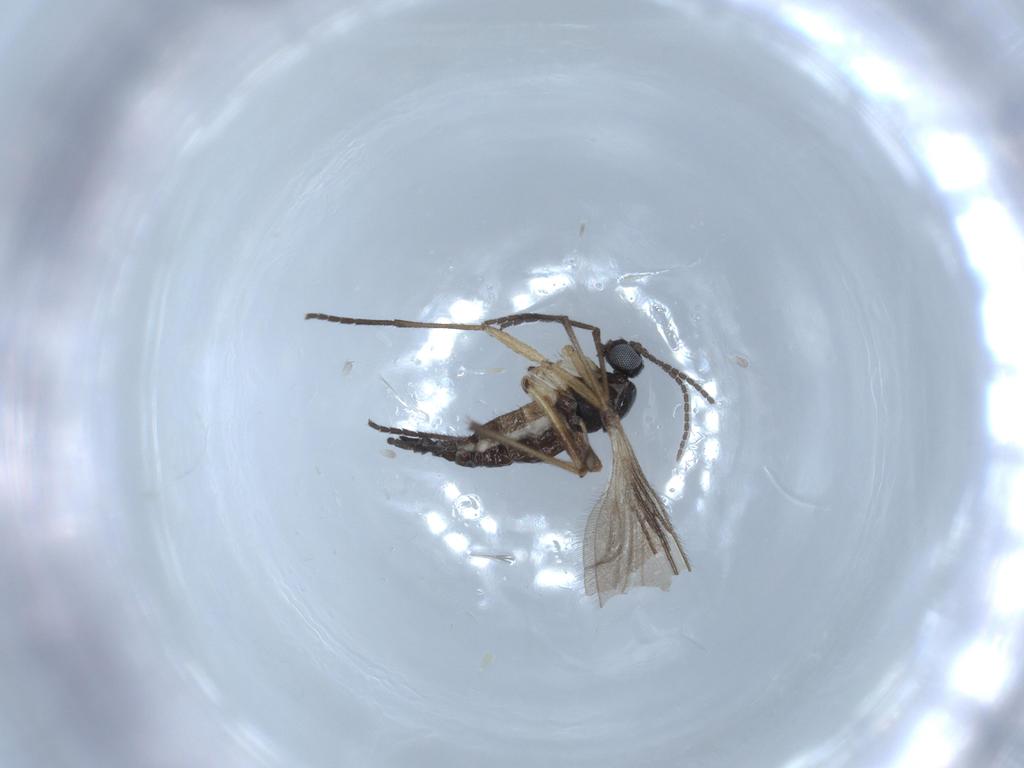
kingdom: Animalia
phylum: Arthropoda
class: Insecta
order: Diptera
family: Sciaridae
